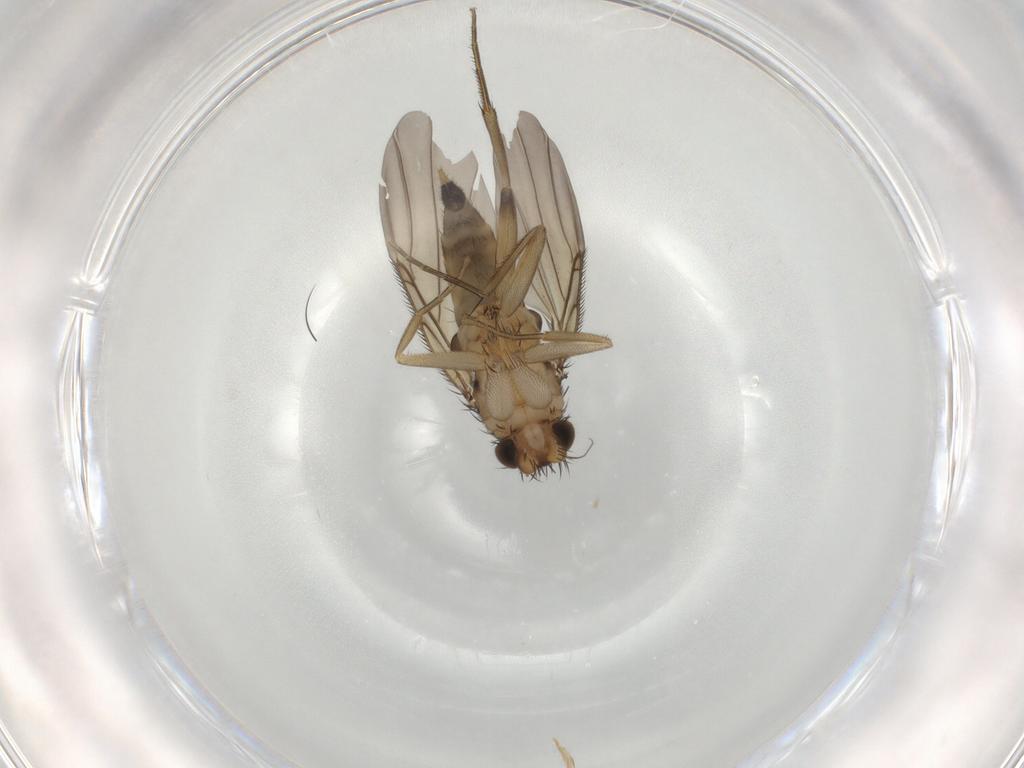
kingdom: Animalia
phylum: Arthropoda
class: Insecta
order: Diptera
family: Phoridae
